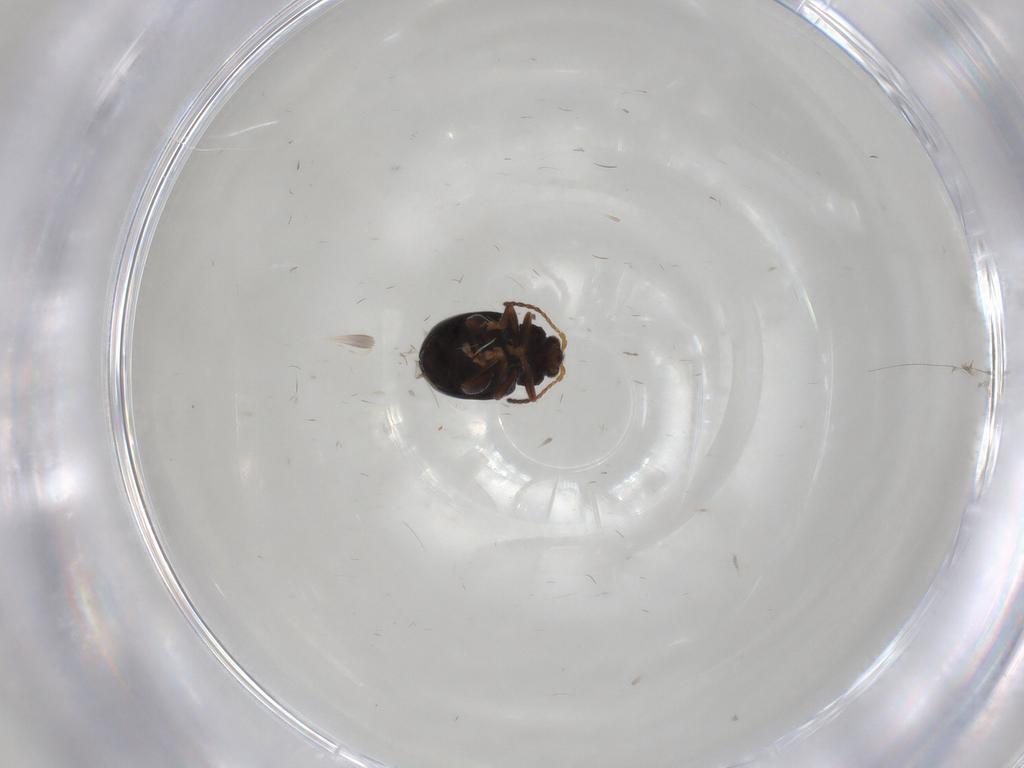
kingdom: Animalia
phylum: Arthropoda
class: Insecta
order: Coleoptera
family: Chrysomelidae
